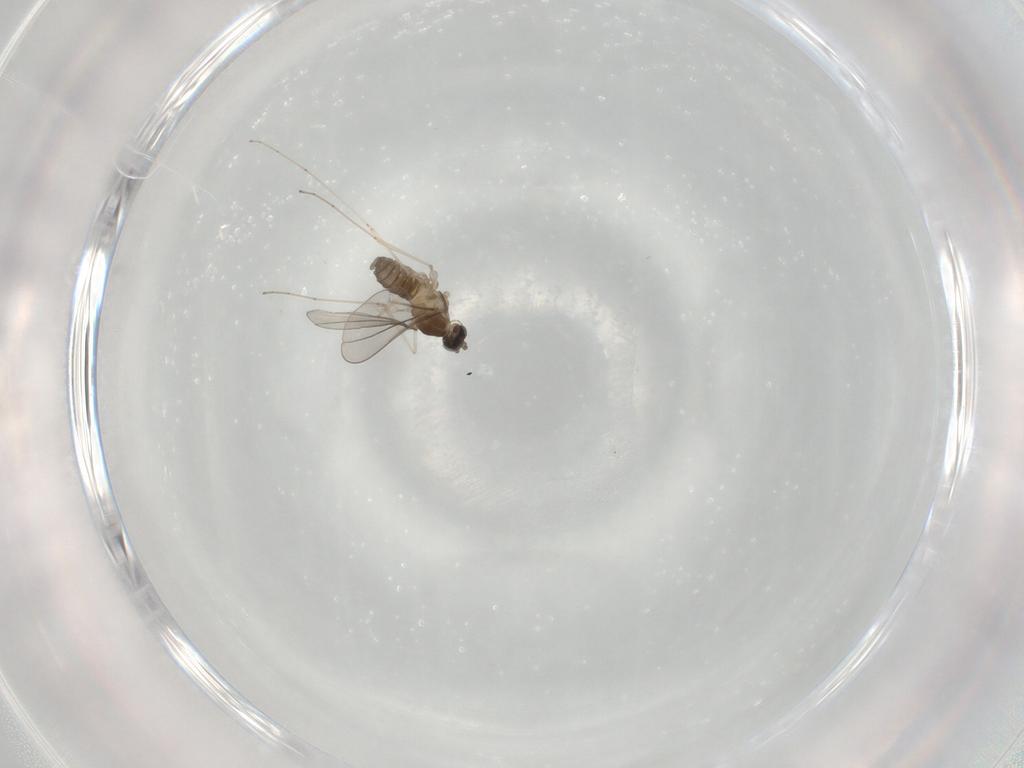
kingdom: Animalia
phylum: Arthropoda
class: Insecta
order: Diptera
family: Cecidomyiidae
